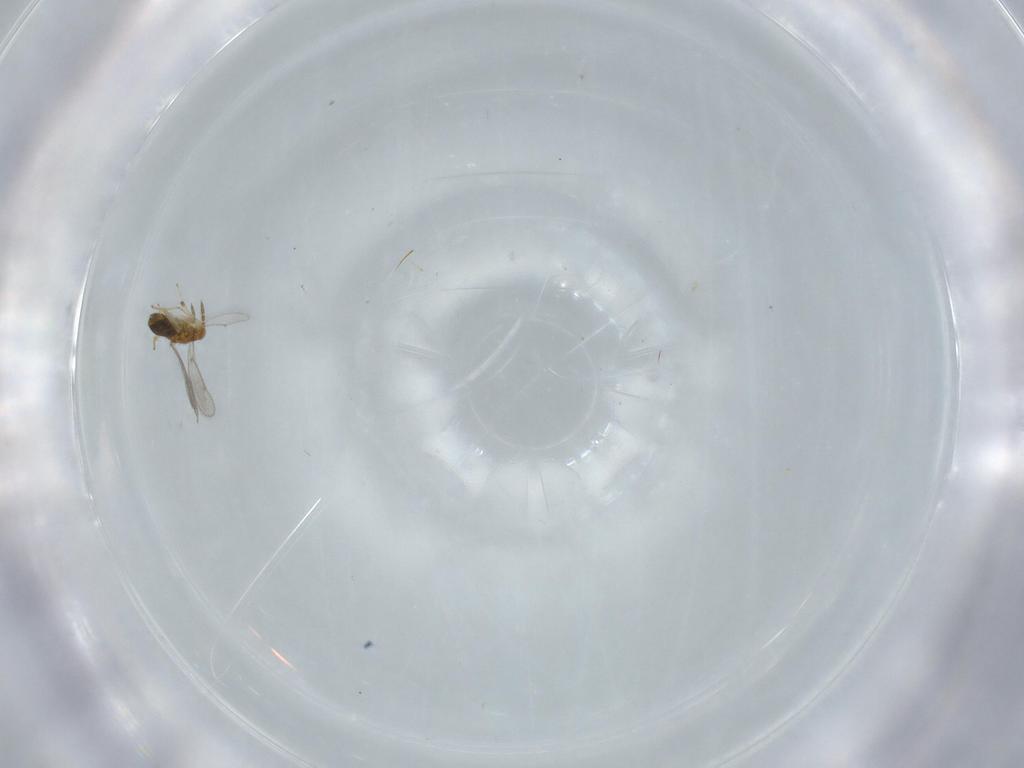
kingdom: Animalia
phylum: Arthropoda
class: Insecta
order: Hymenoptera
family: Aphelinidae
